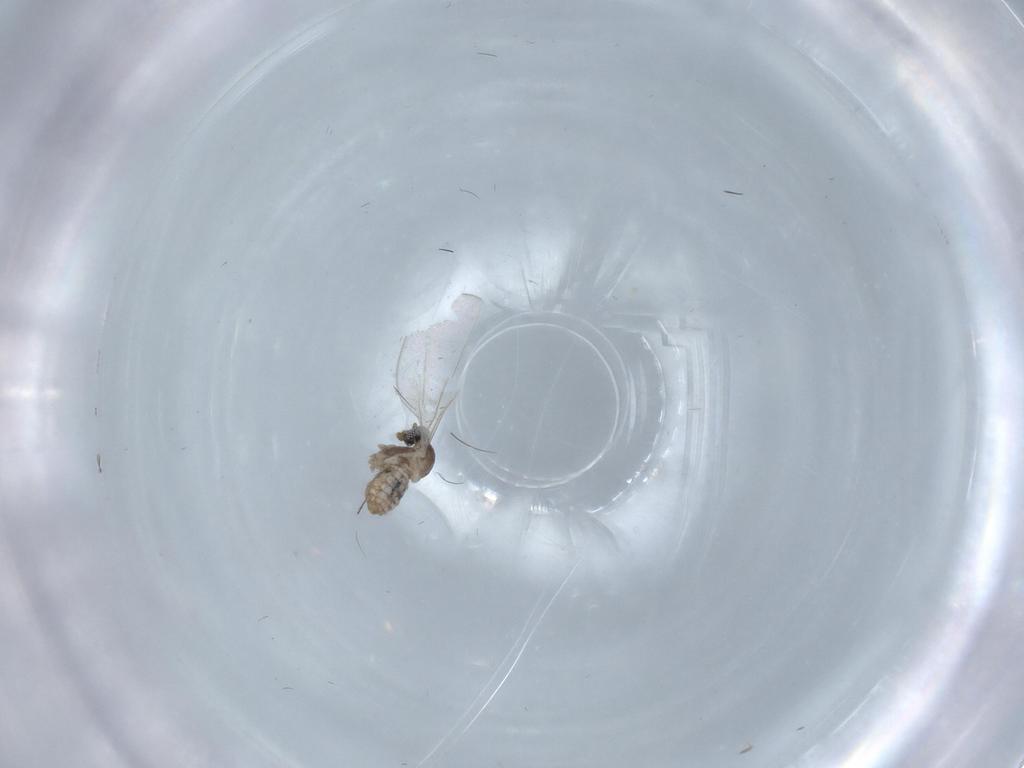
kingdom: Animalia
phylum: Arthropoda
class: Insecta
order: Diptera
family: Cecidomyiidae
